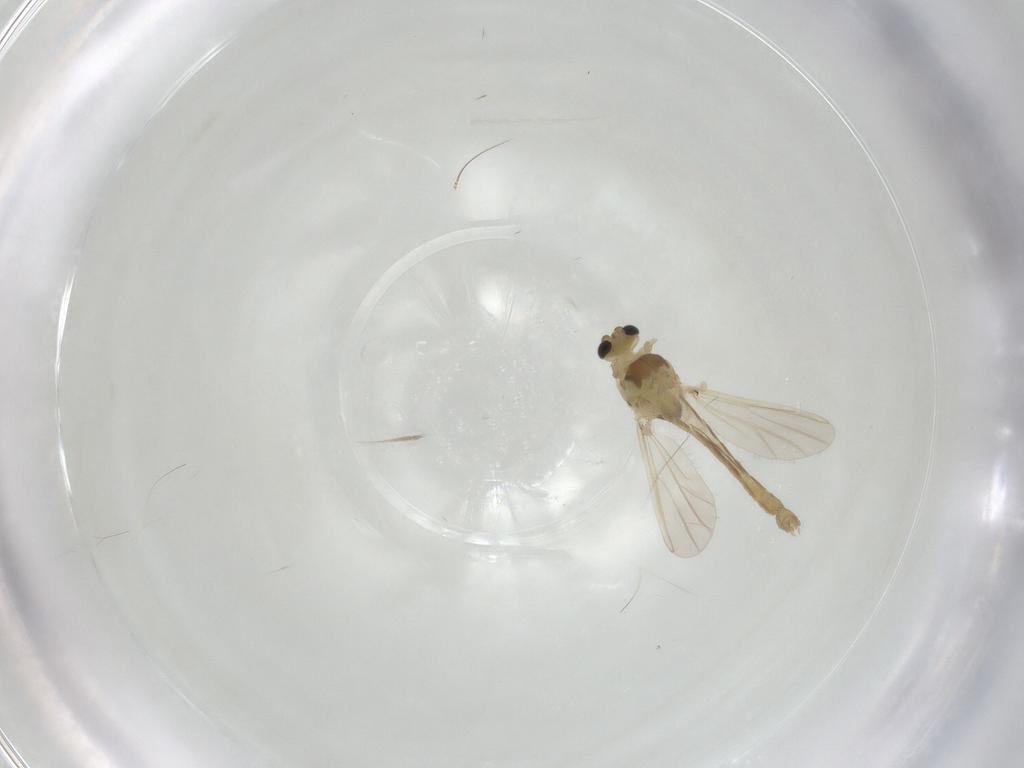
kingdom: Animalia
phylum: Arthropoda
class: Insecta
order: Diptera
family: Chironomidae
